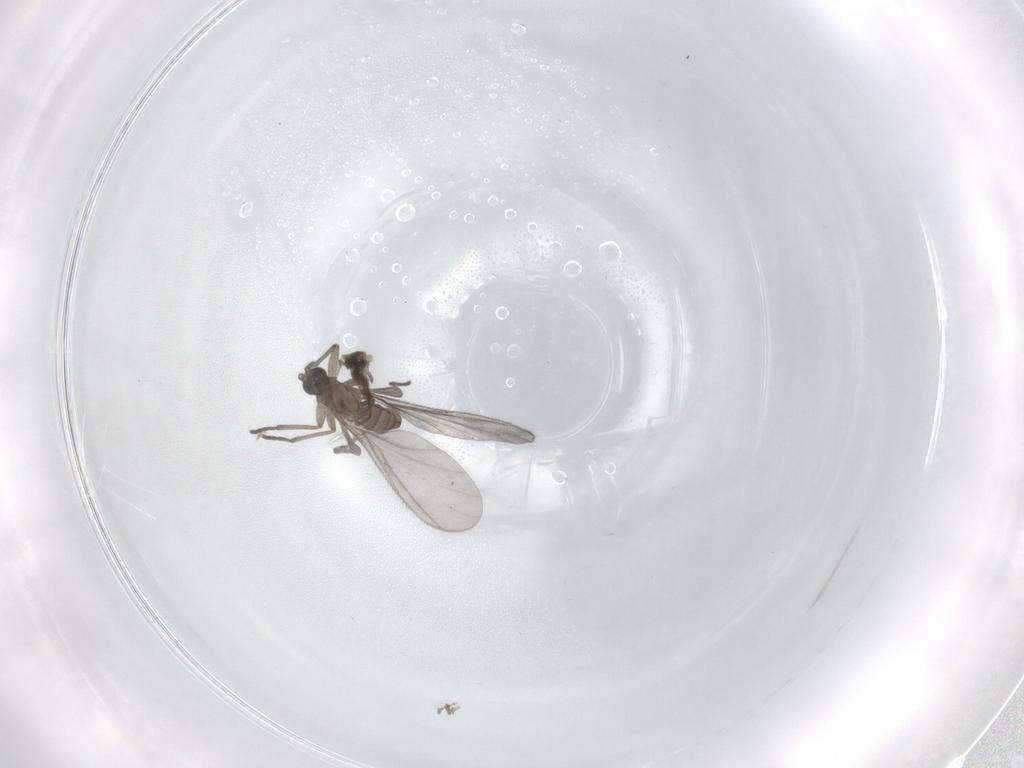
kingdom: Animalia
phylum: Arthropoda
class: Insecta
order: Diptera
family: Sciaridae
